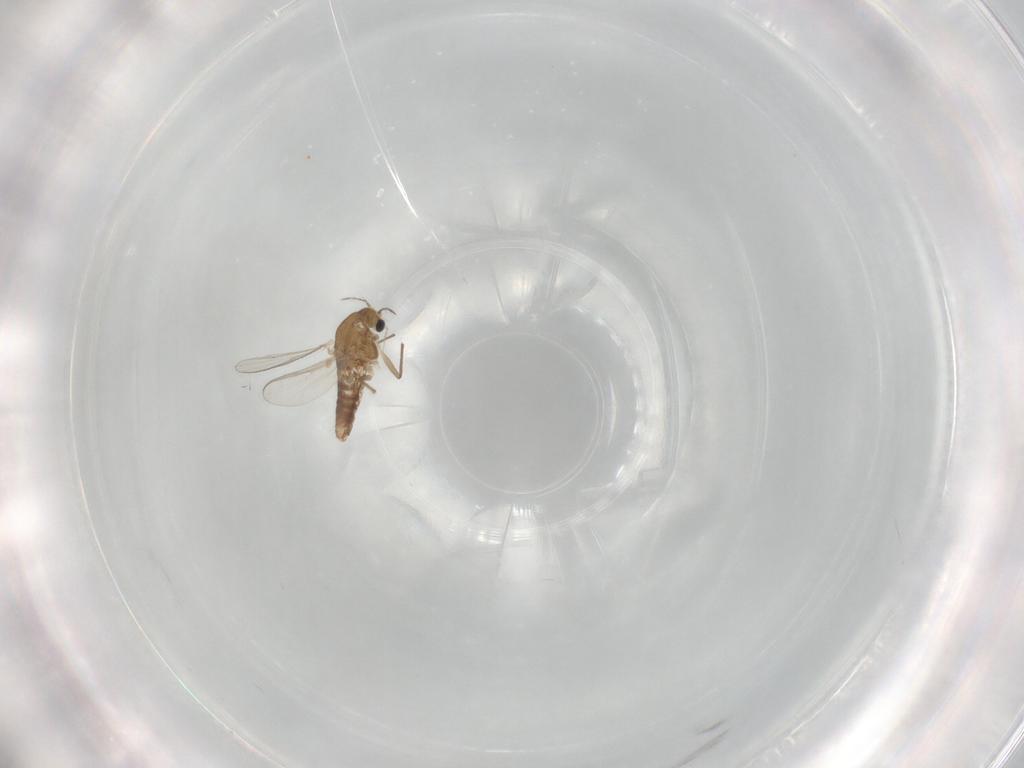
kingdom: Animalia
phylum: Arthropoda
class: Insecta
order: Diptera
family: Chironomidae
